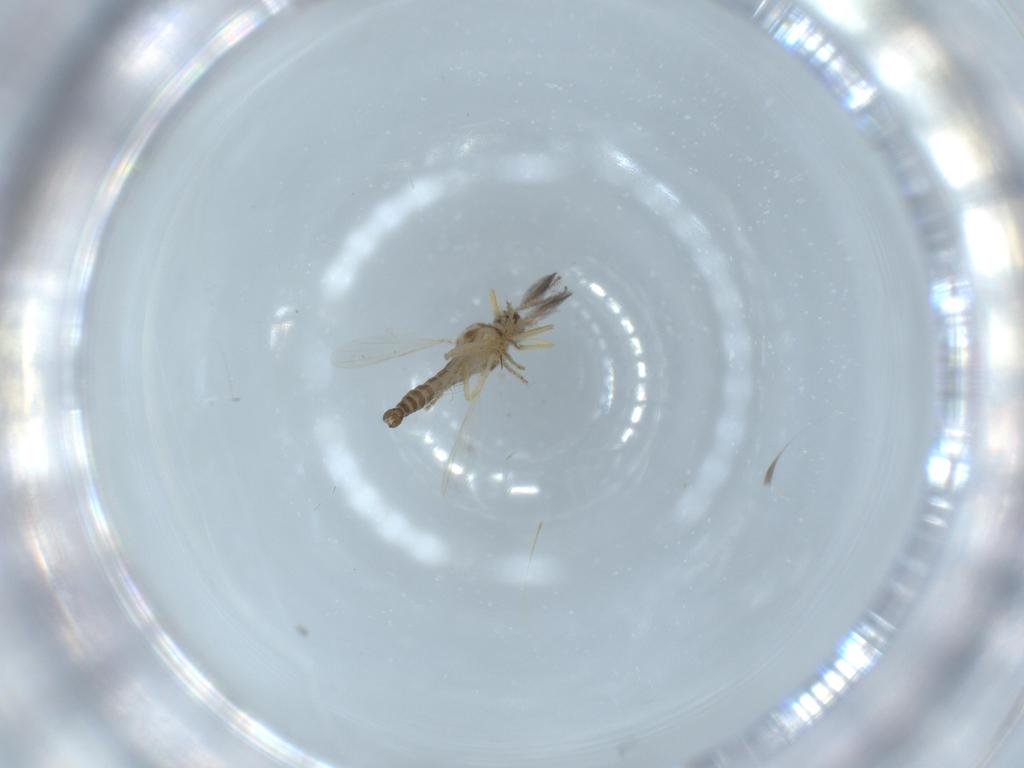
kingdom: Animalia
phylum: Arthropoda
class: Insecta
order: Diptera
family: Ceratopogonidae
